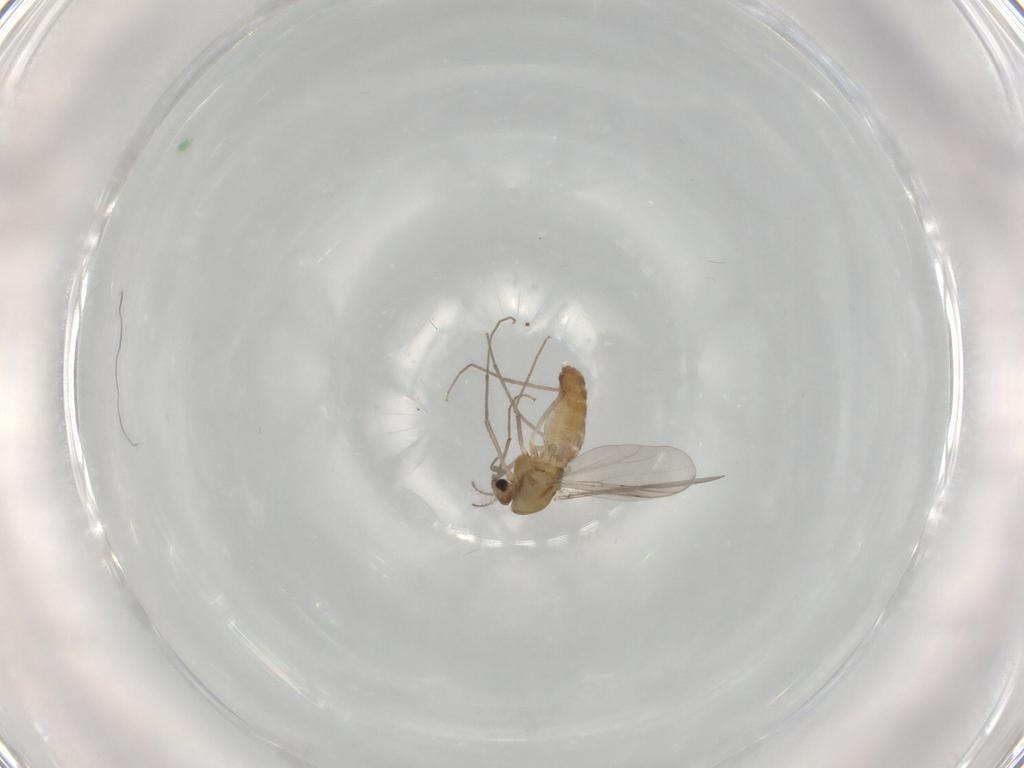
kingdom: Animalia
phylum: Arthropoda
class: Insecta
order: Diptera
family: Chironomidae
